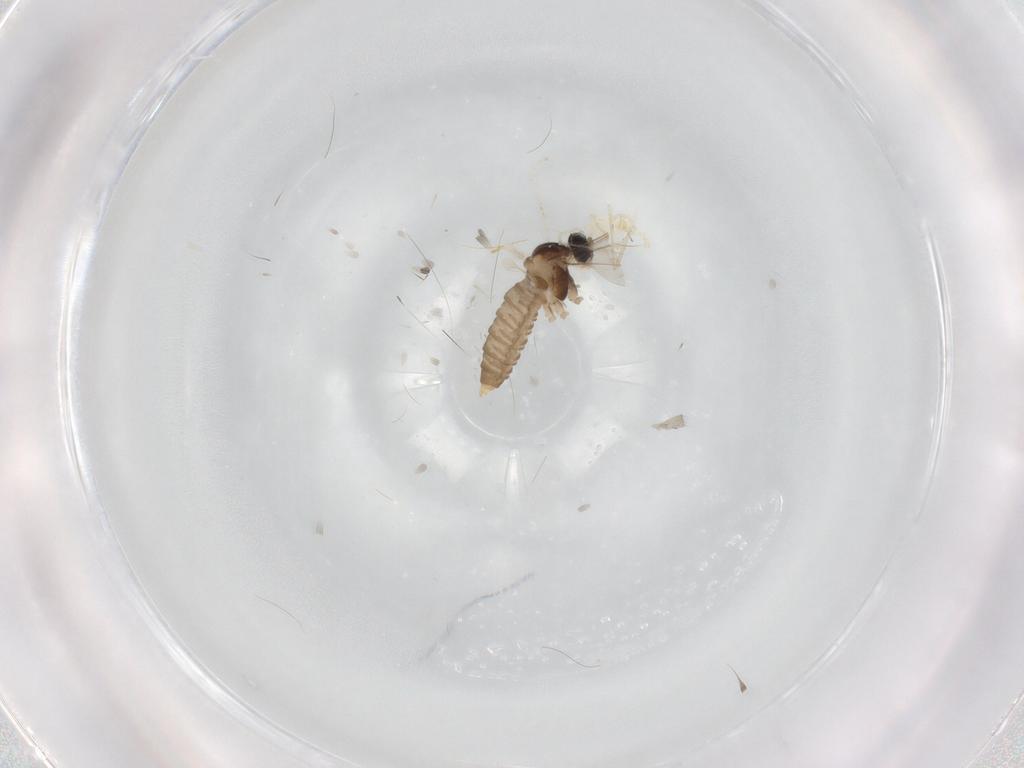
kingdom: Animalia
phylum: Arthropoda
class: Insecta
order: Diptera
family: Cecidomyiidae
